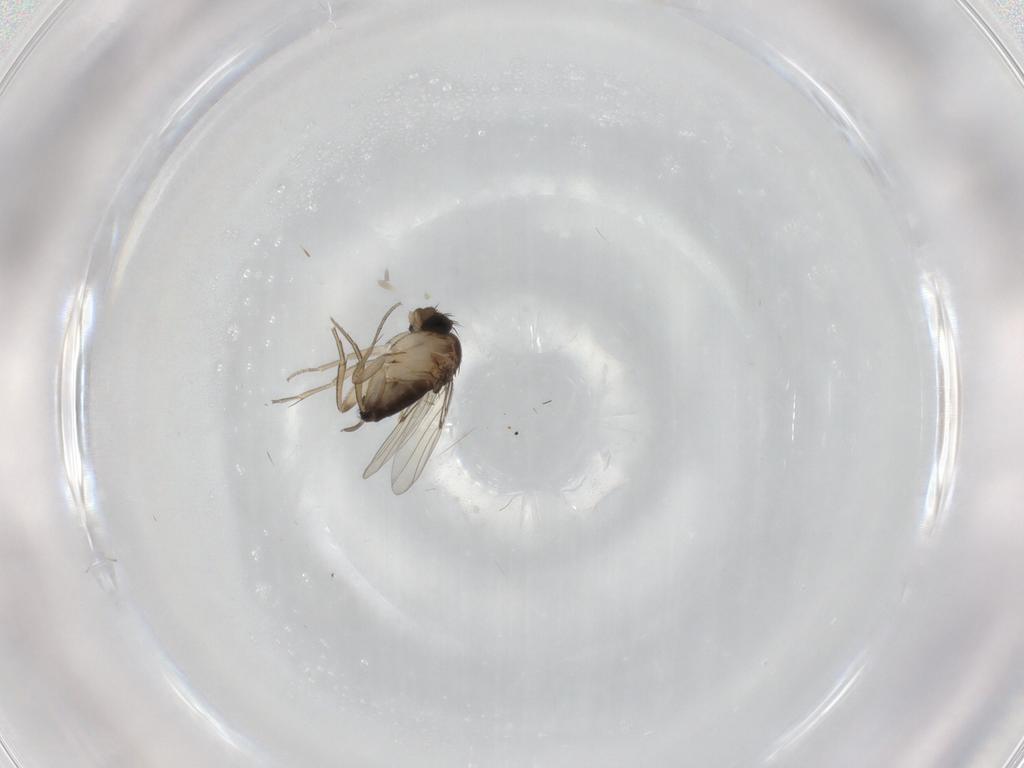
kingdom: Animalia
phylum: Arthropoda
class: Insecta
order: Diptera
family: Phoridae
